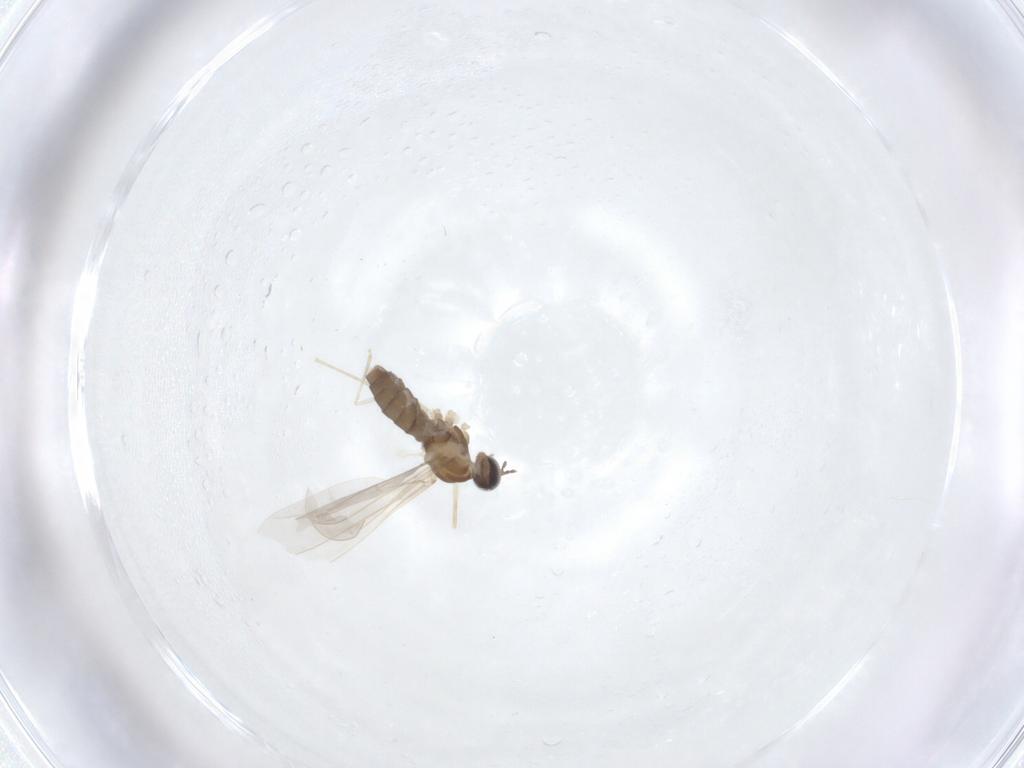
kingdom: Animalia
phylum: Arthropoda
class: Insecta
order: Diptera
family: Cecidomyiidae
